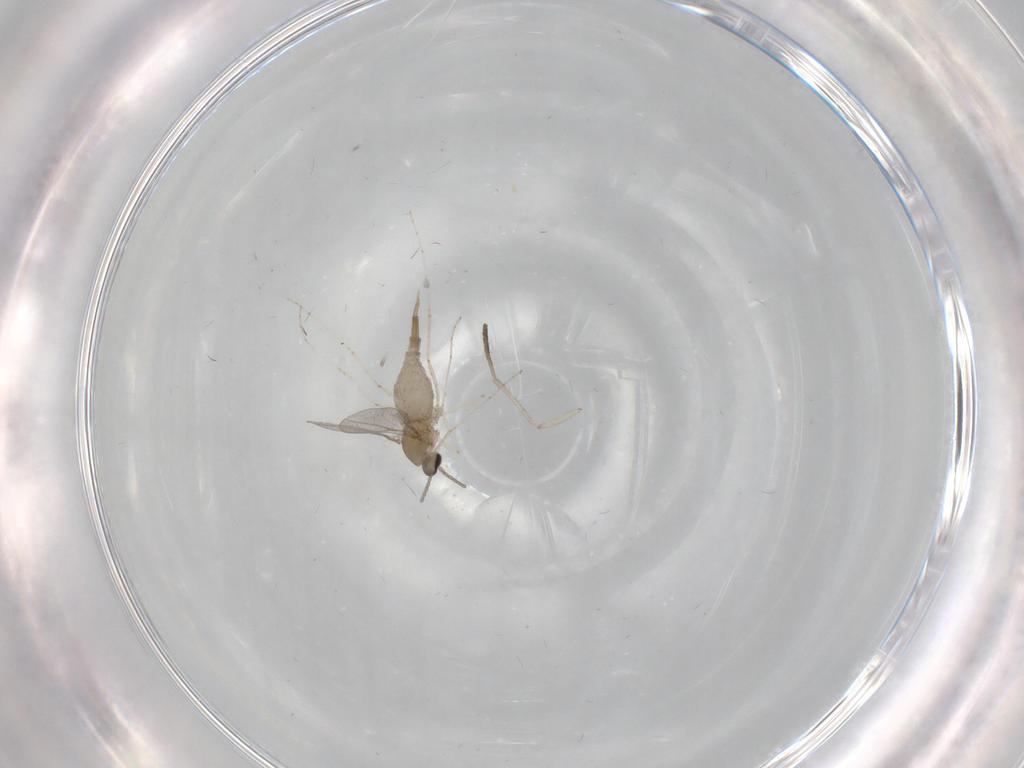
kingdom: Animalia
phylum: Arthropoda
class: Insecta
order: Diptera
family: Cecidomyiidae
